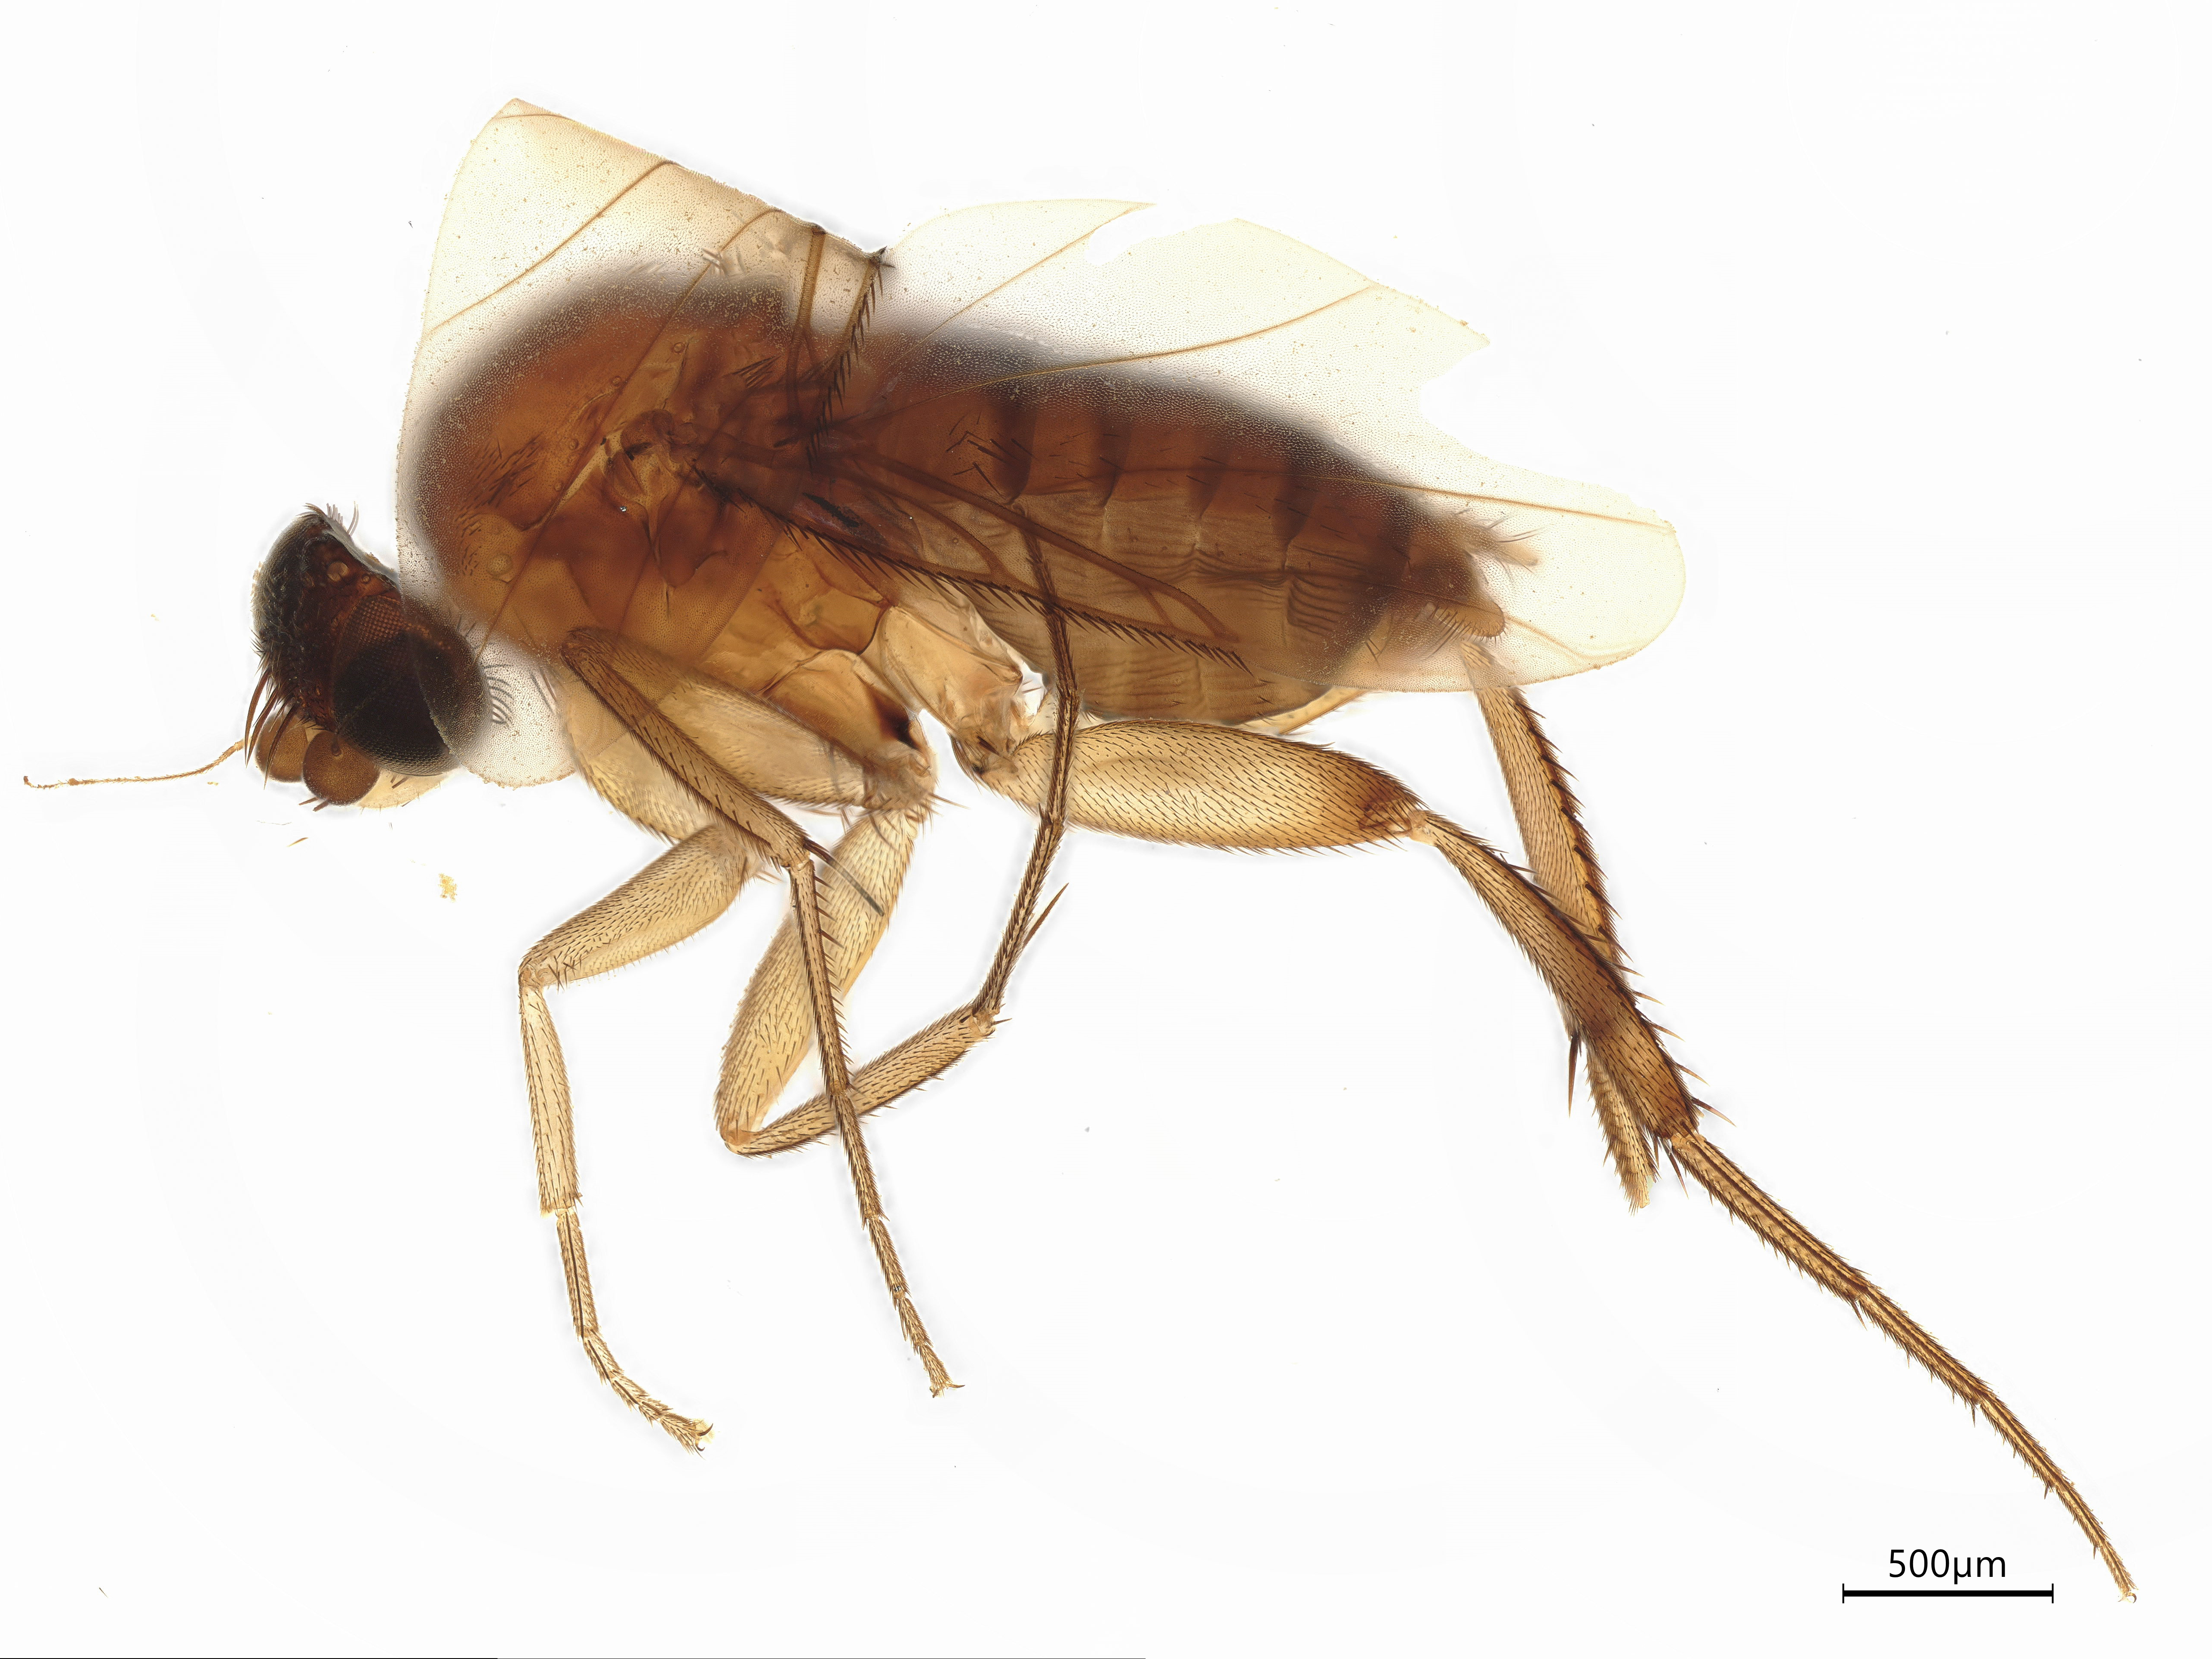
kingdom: Animalia
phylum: Arthropoda
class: Insecta
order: Diptera
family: Phoridae
